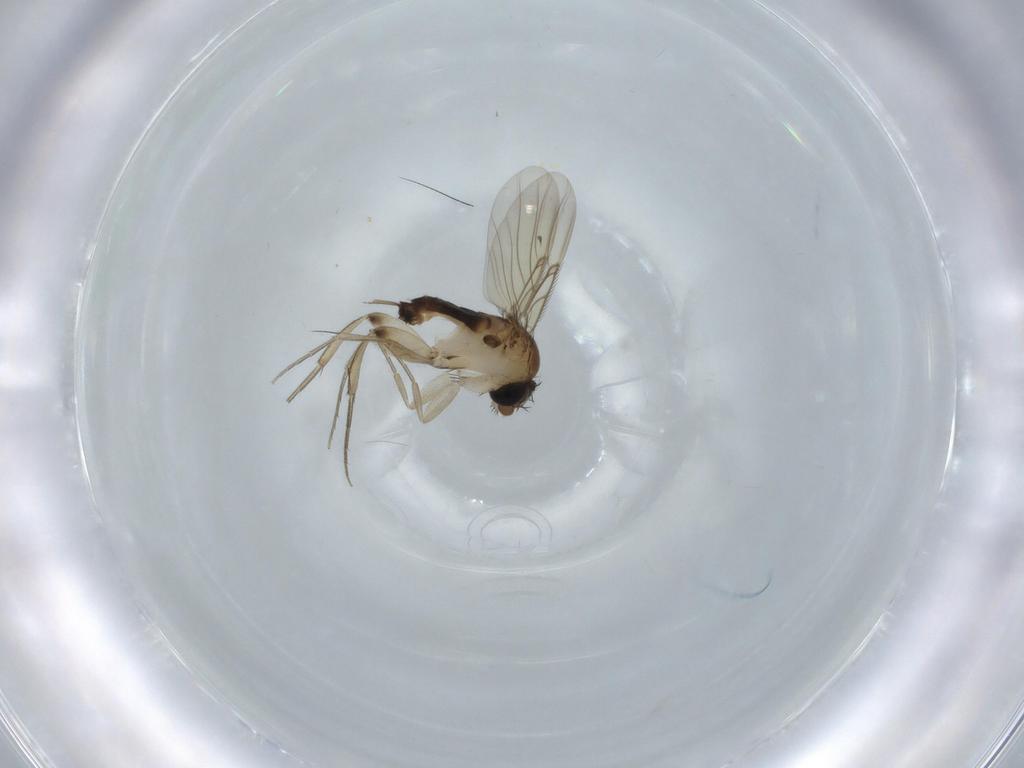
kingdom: Animalia
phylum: Arthropoda
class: Insecta
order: Diptera
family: Phoridae
